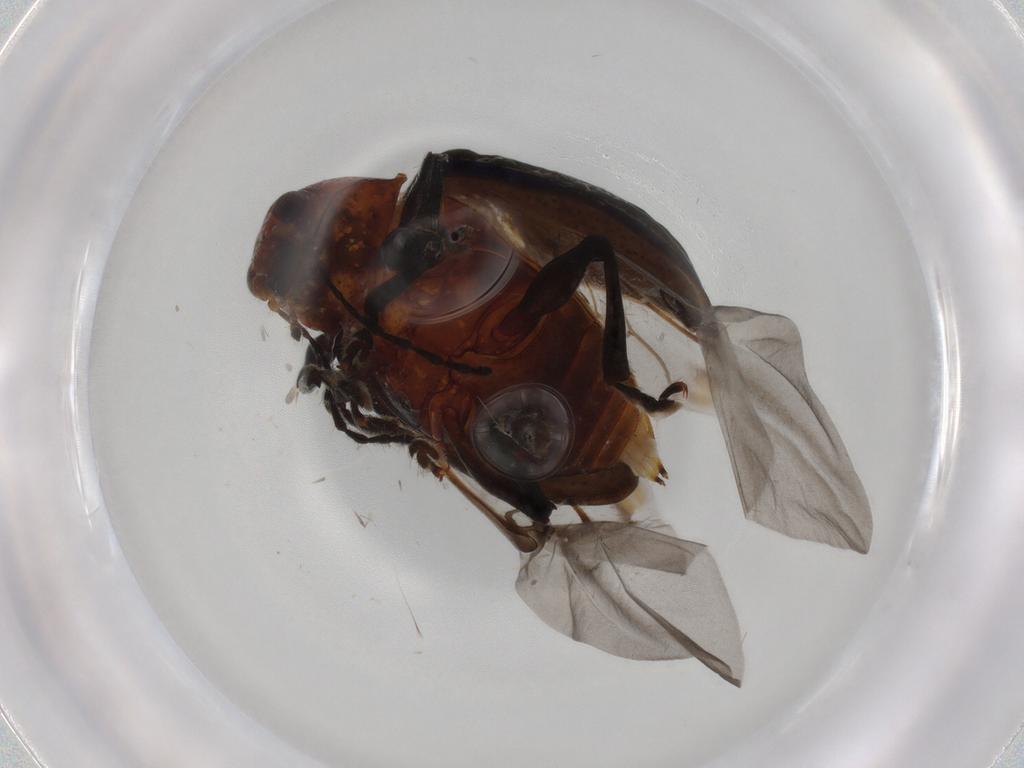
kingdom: Animalia
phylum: Arthropoda
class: Insecta
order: Coleoptera
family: Chrysomelidae
